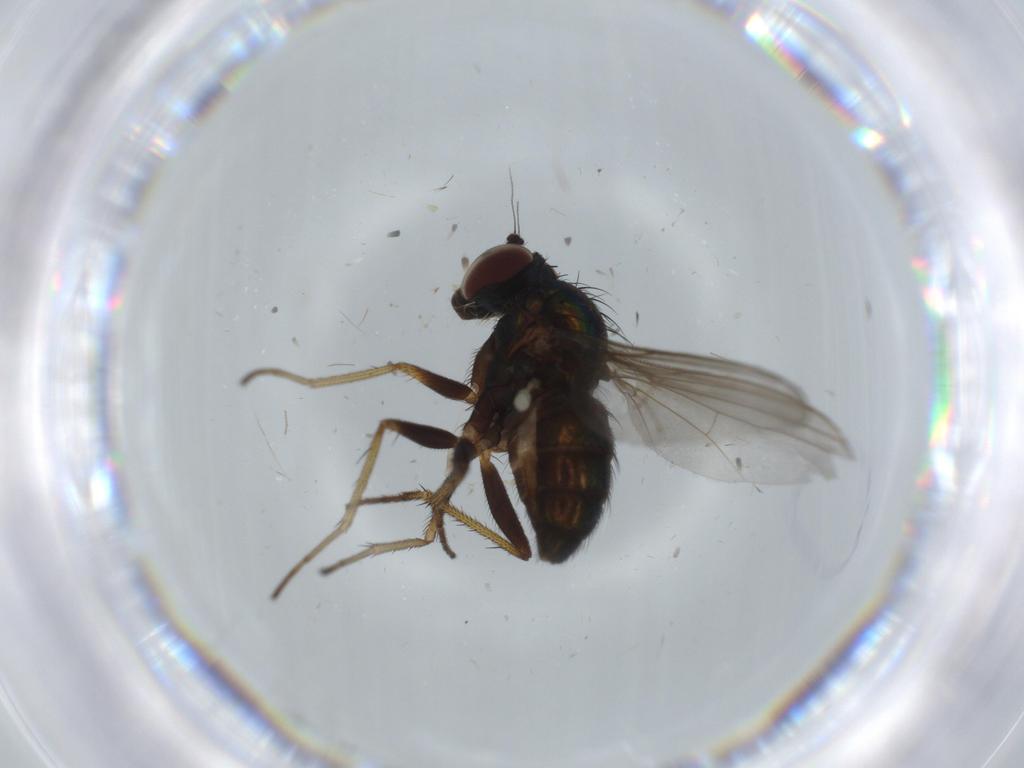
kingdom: Animalia
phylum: Arthropoda
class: Insecta
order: Diptera
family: Dolichopodidae
